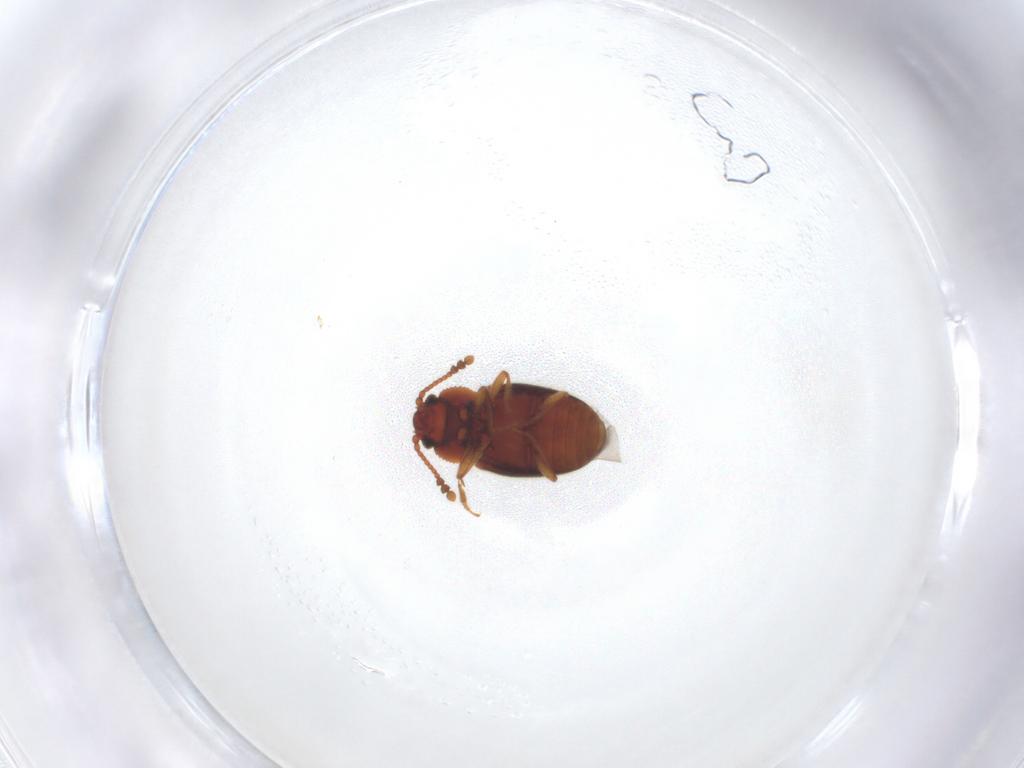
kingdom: Animalia
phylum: Arthropoda
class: Insecta
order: Coleoptera
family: Cryptophagidae
